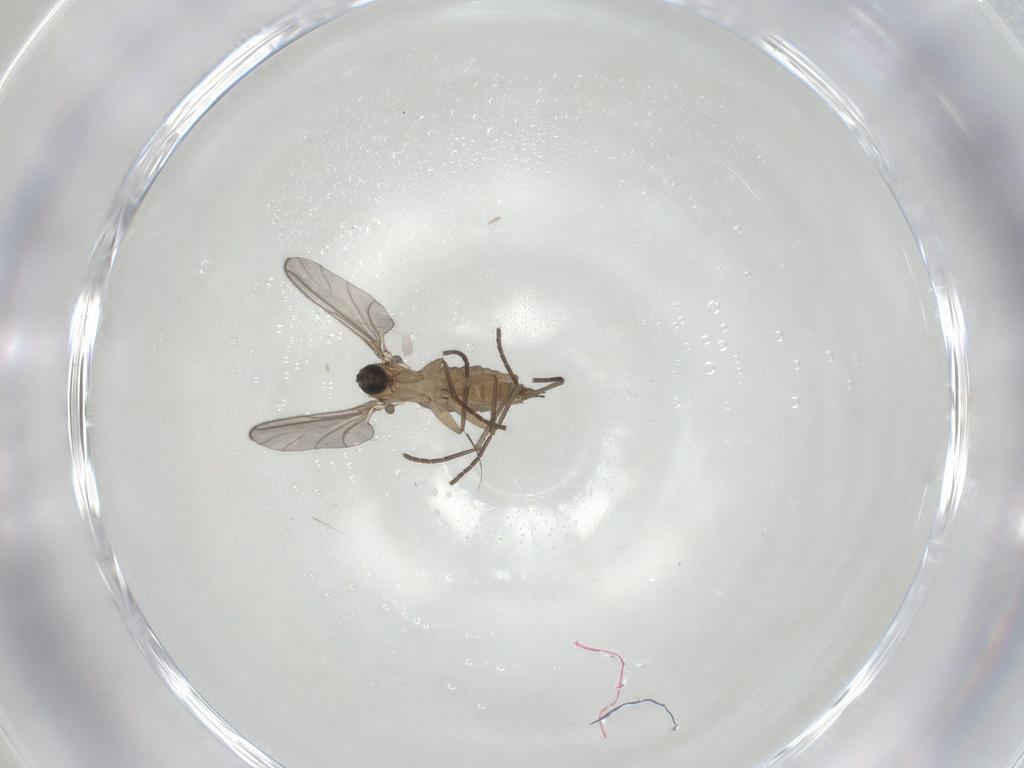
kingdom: Animalia
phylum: Arthropoda
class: Insecta
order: Diptera
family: Sciaridae
